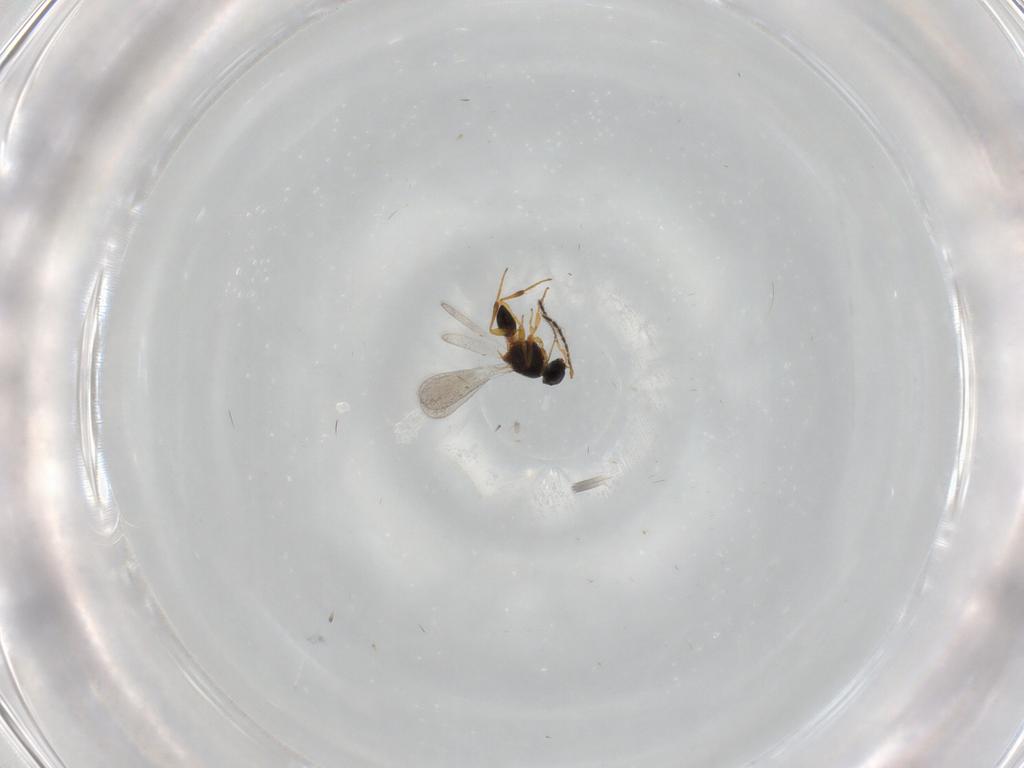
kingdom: Animalia
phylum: Arthropoda
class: Insecta
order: Hymenoptera
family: Platygastridae
